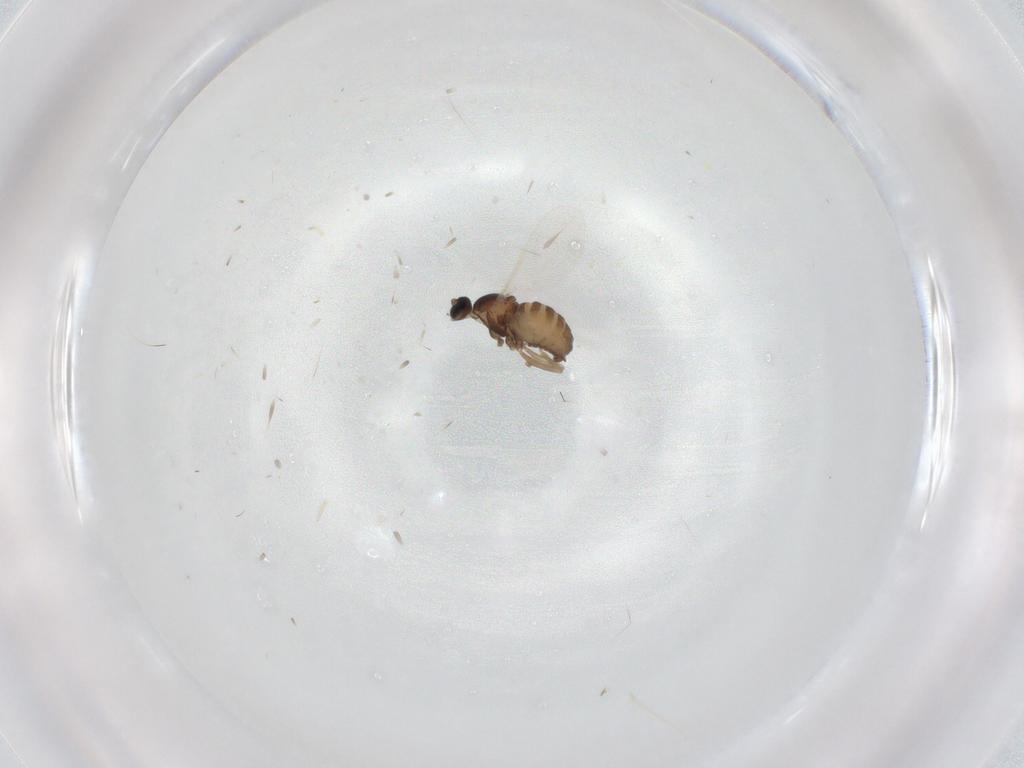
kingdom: Animalia
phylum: Arthropoda
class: Insecta
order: Diptera
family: Cecidomyiidae
